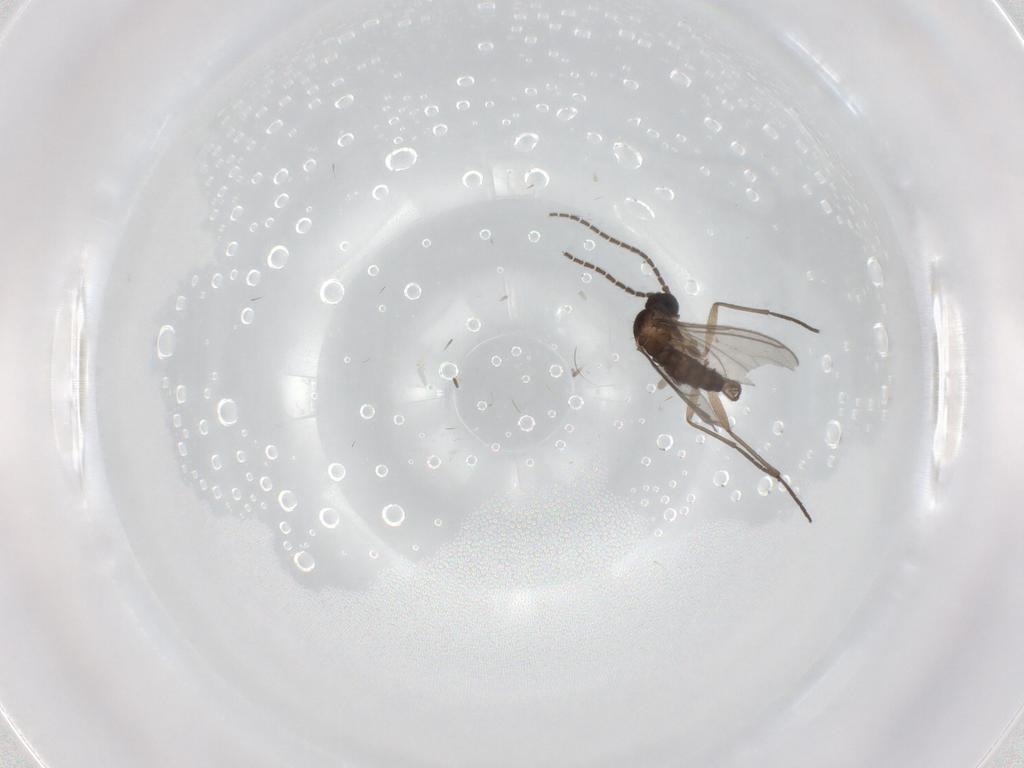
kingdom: Animalia
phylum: Arthropoda
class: Insecta
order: Diptera
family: Sciaridae
